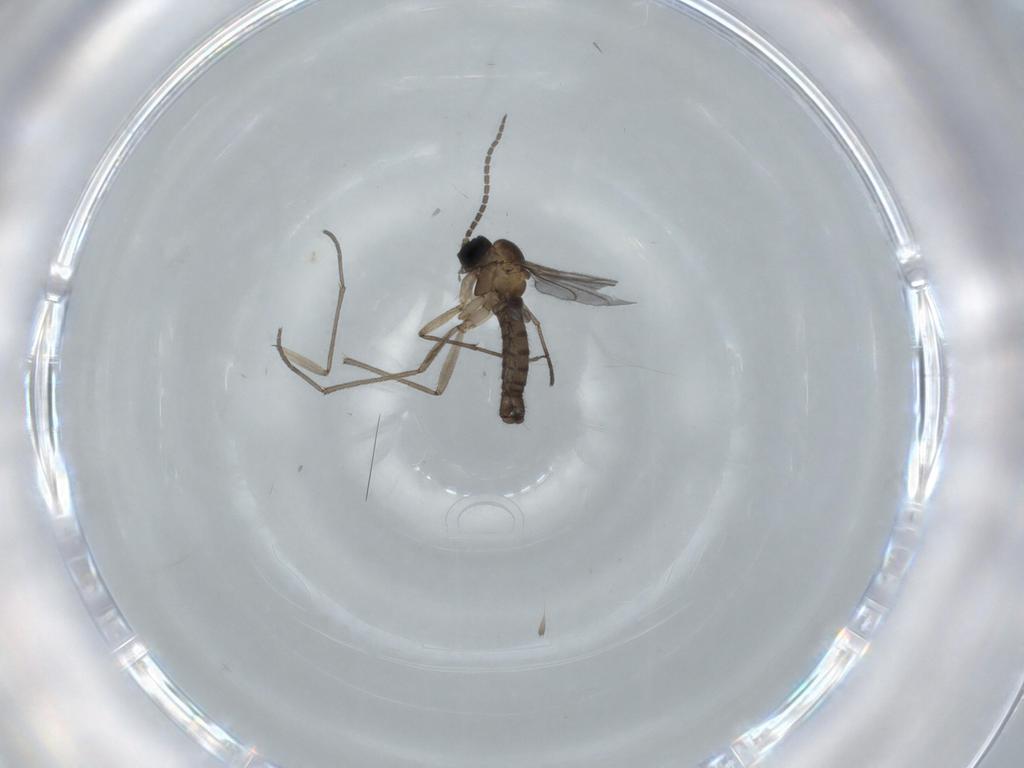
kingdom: Animalia
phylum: Arthropoda
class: Insecta
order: Diptera
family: Sciaridae
